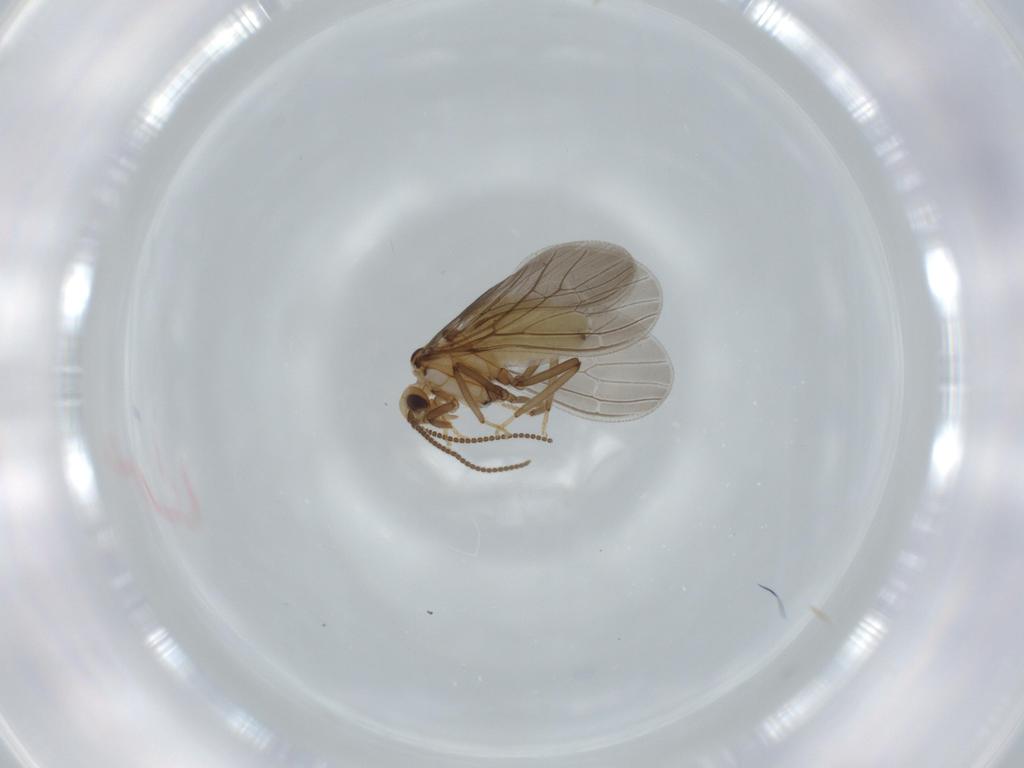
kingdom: Animalia
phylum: Arthropoda
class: Insecta
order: Neuroptera
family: Coniopterygidae
